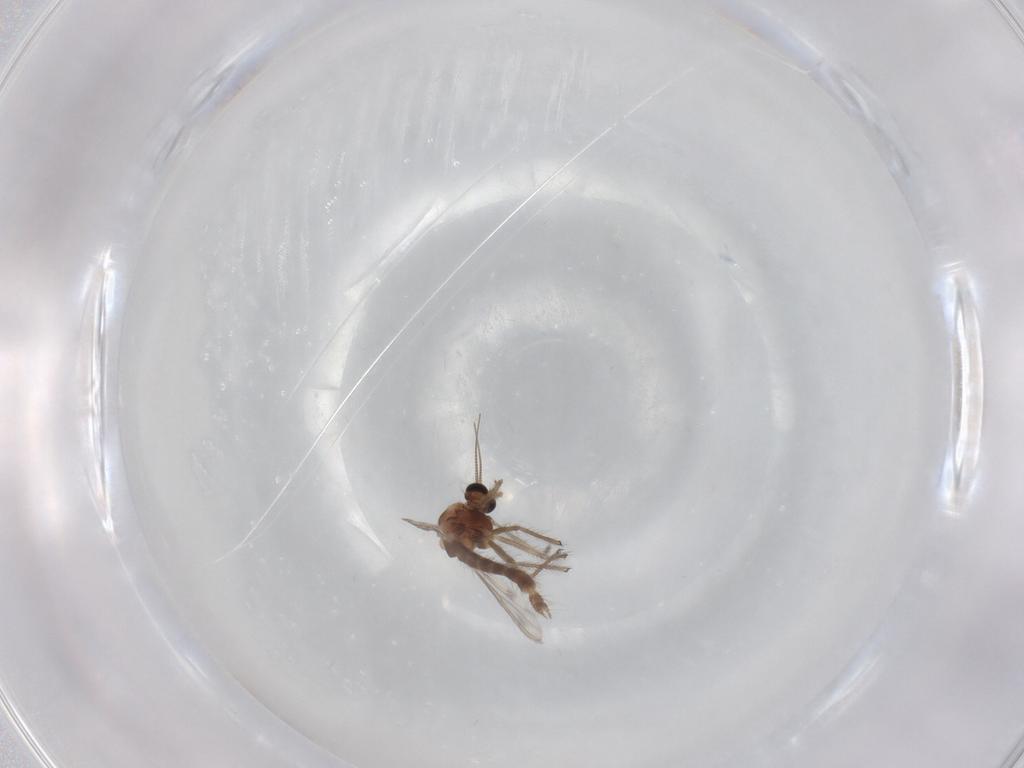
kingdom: Animalia
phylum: Arthropoda
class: Insecta
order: Diptera
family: Chironomidae
